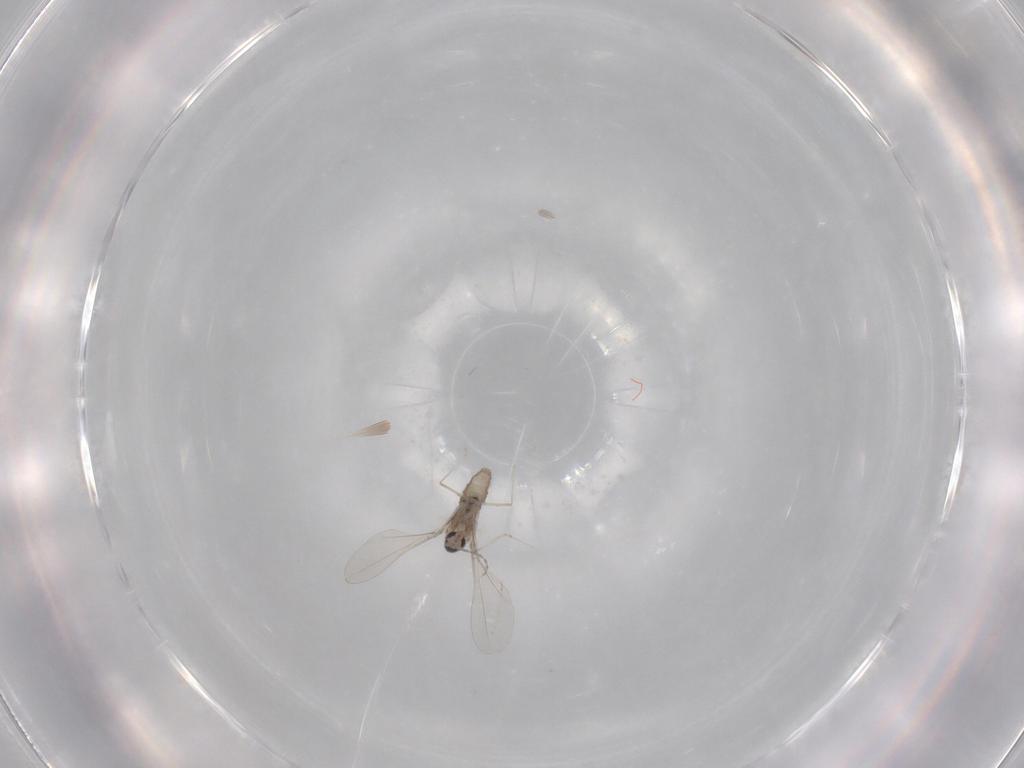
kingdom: Animalia
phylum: Arthropoda
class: Insecta
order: Diptera
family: Cecidomyiidae
